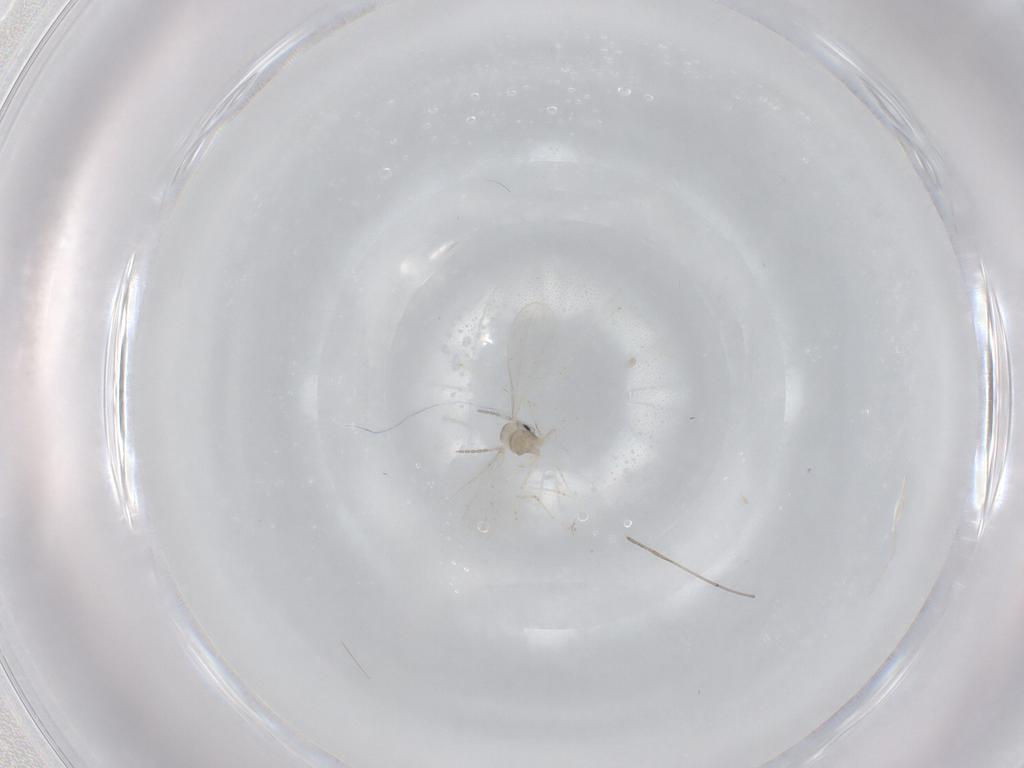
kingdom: Animalia
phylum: Arthropoda
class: Insecta
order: Diptera
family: Cecidomyiidae
